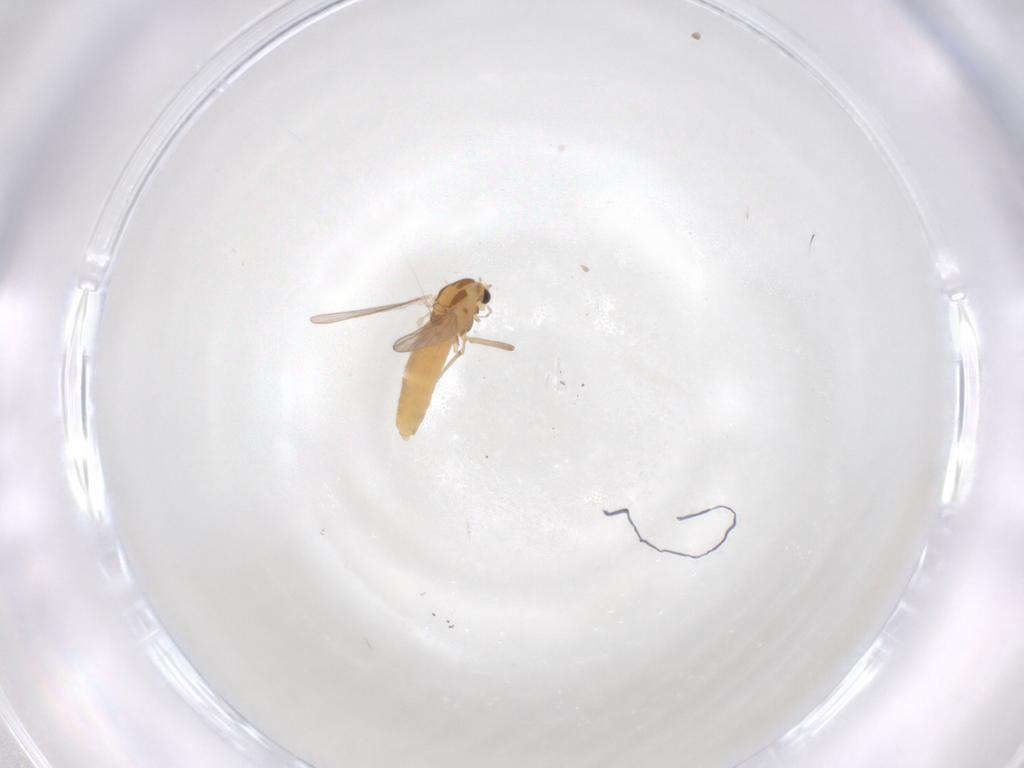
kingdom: Animalia
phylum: Arthropoda
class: Insecta
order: Diptera
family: Chironomidae
